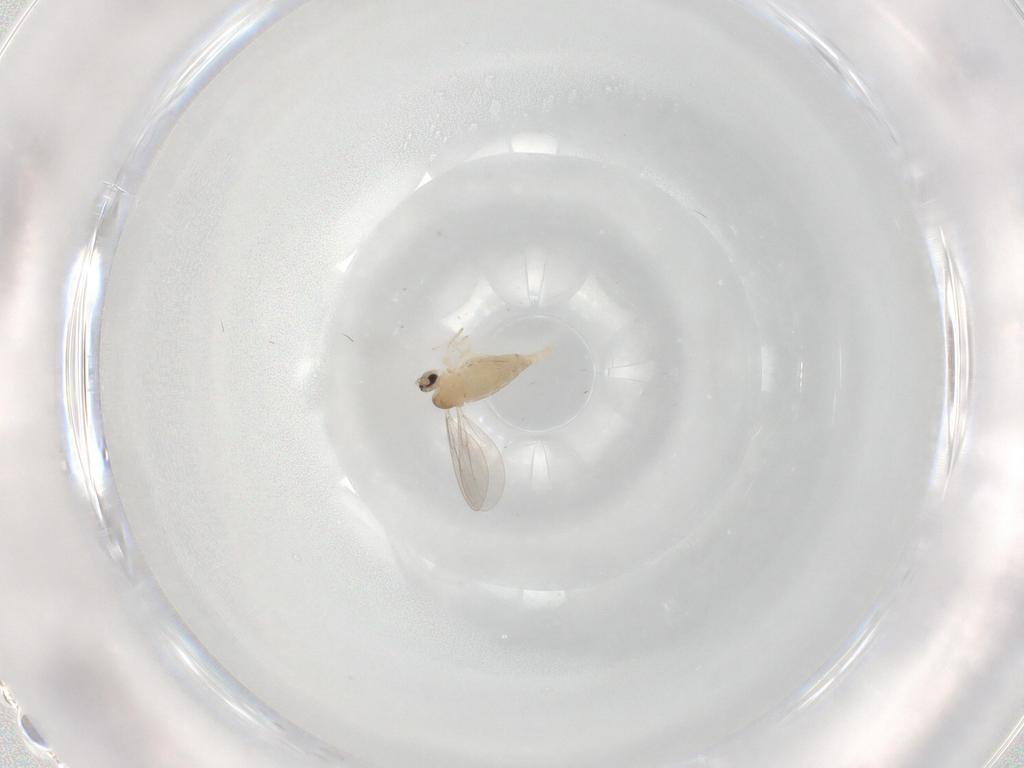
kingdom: Animalia
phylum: Arthropoda
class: Insecta
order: Diptera
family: Cecidomyiidae
